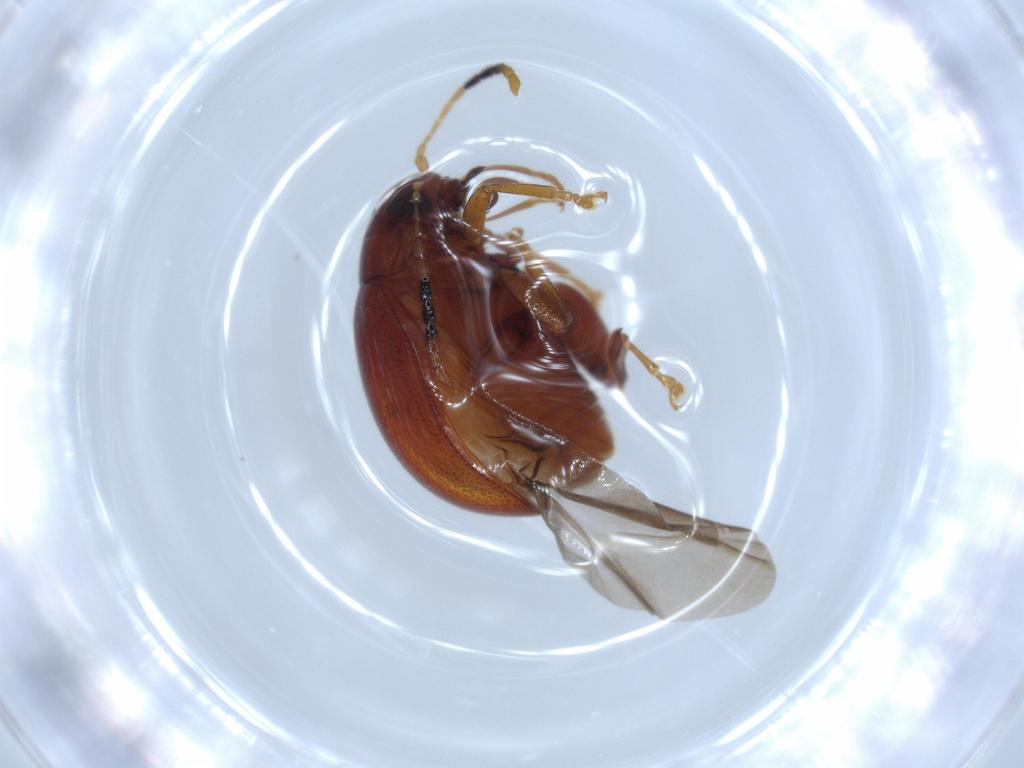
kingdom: Animalia
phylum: Arthropoda
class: Insecta
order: Coleoptera
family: Chrysomelidae
